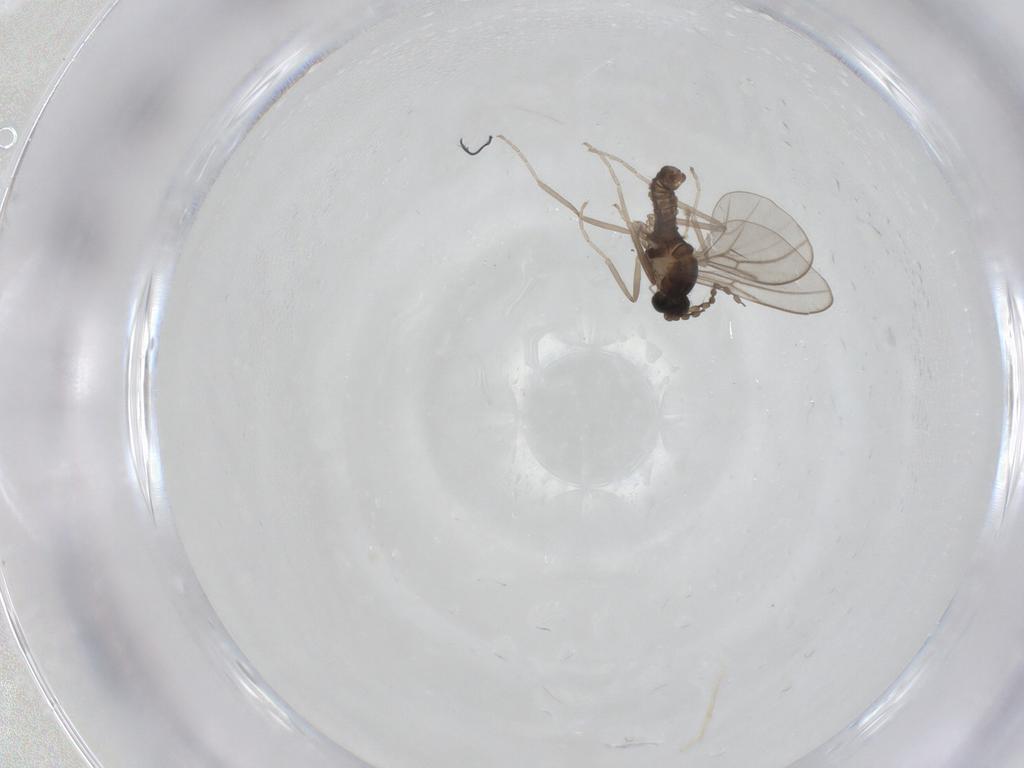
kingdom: Animalia
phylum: Arthropoda
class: Insecta
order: Diptera
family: Cecidomyiidae
